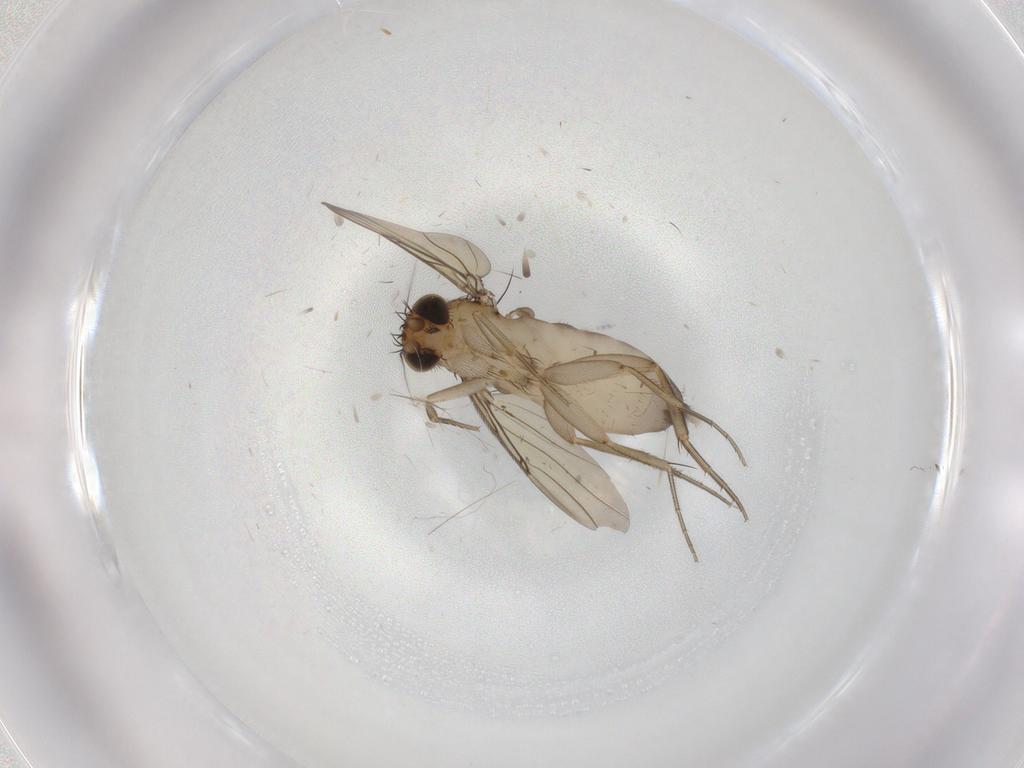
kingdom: Animalia
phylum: Arthropoda
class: Insecta
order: Diptera
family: Phoridae
